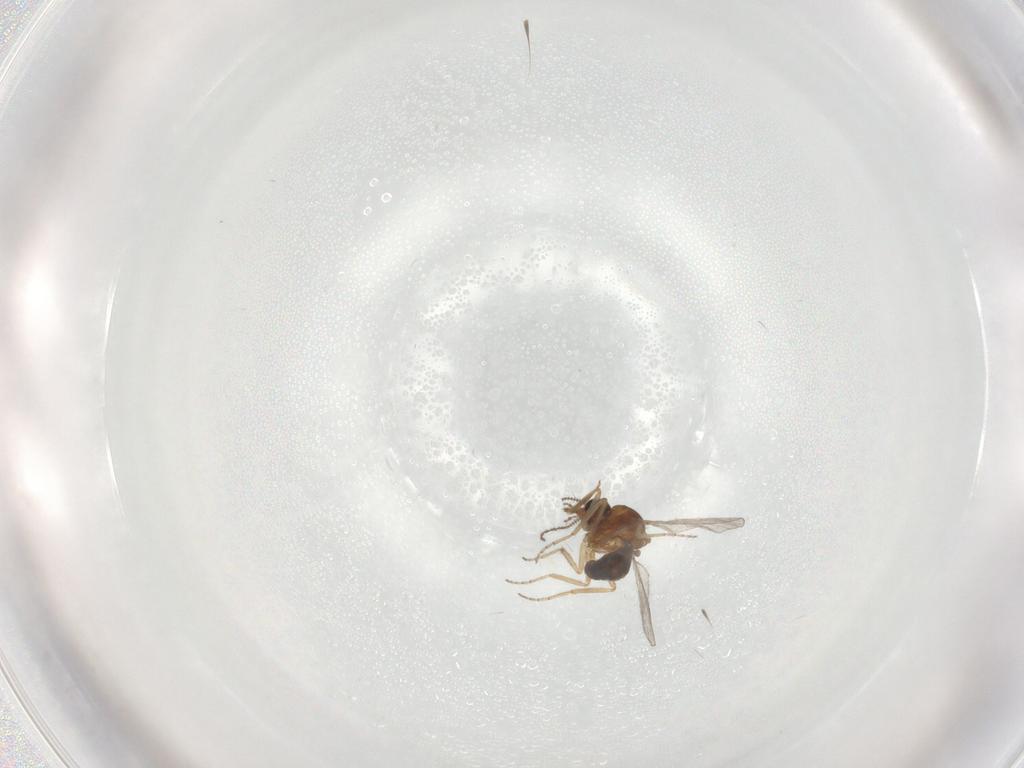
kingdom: Animalia
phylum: Arthropoda
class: Insecta
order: Diptera
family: Ceratopogonidae
